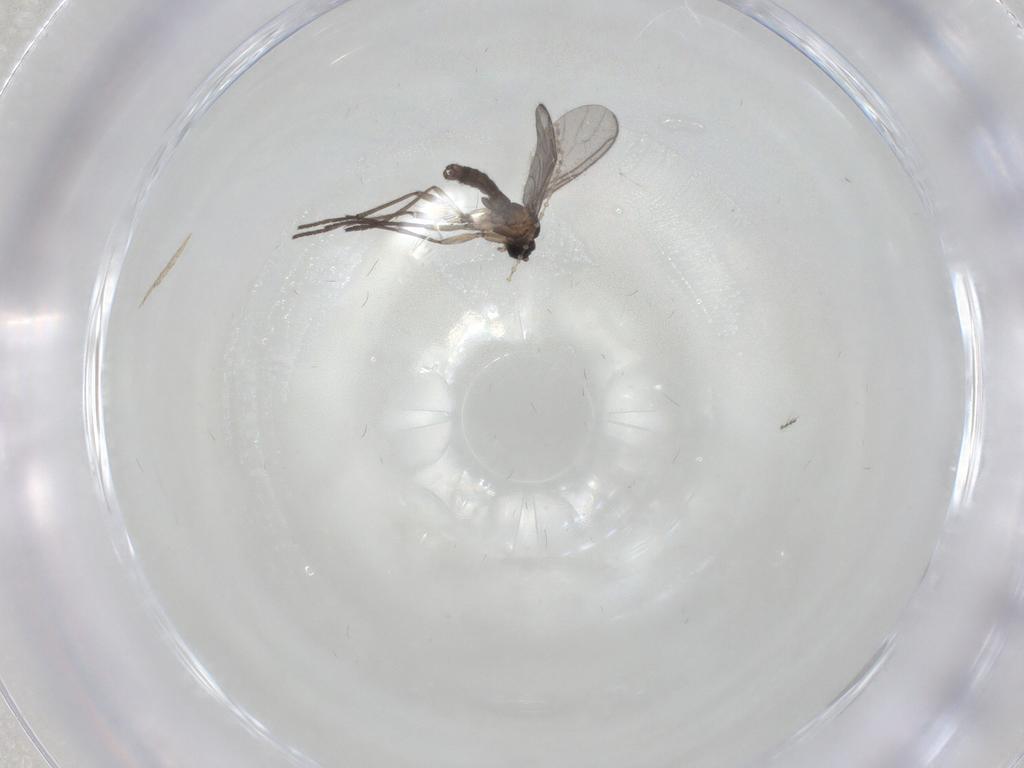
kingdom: Animalia
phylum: Arthropoda
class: Insecta
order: Diptera
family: Sciaridae
